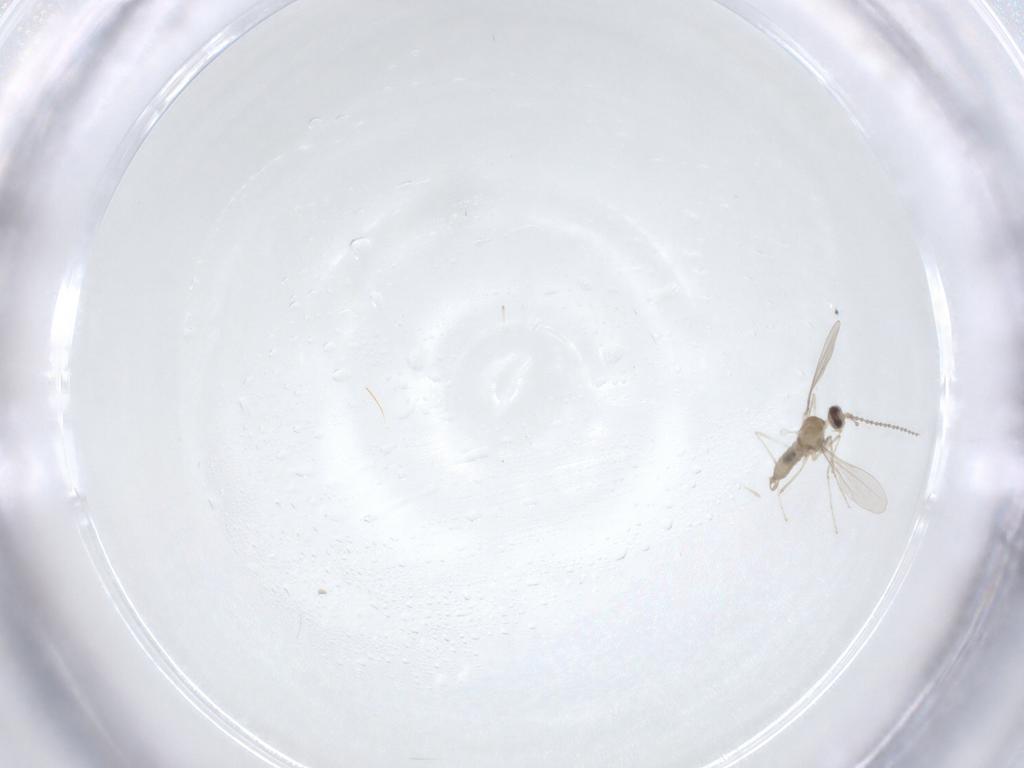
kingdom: Animalia
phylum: Arthropoda
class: Insecta
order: Diptera
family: Cecidomyiidae
